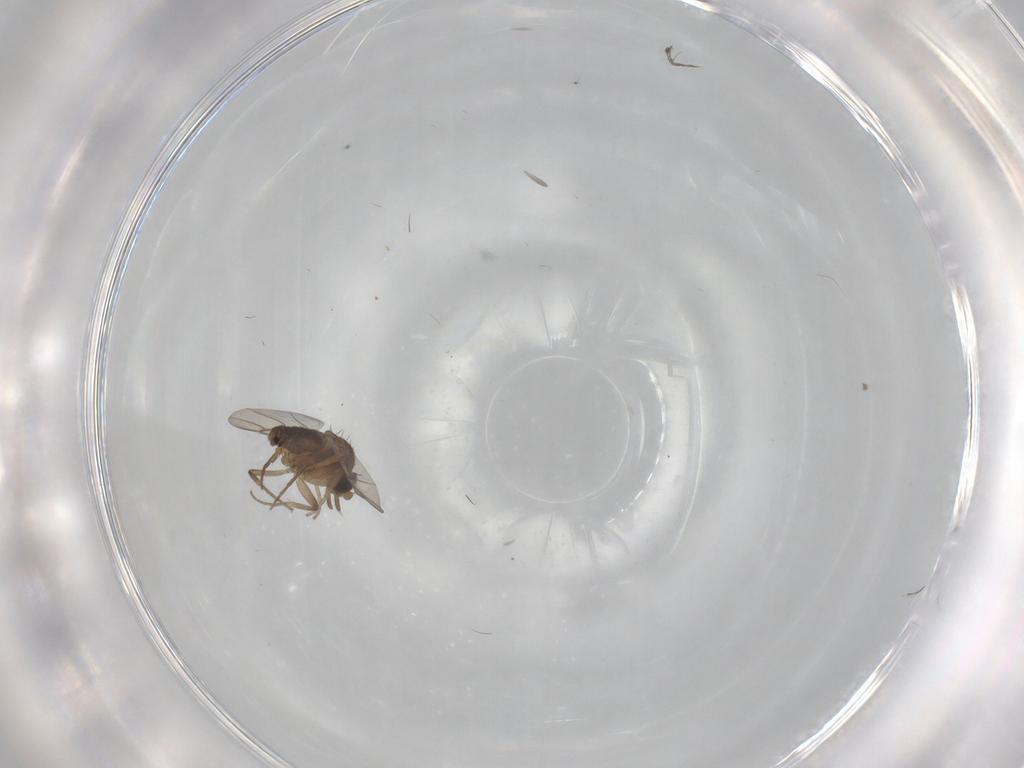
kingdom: Animalia
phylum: Arthropoda
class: Insecta
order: Diptera
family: Phoridae
